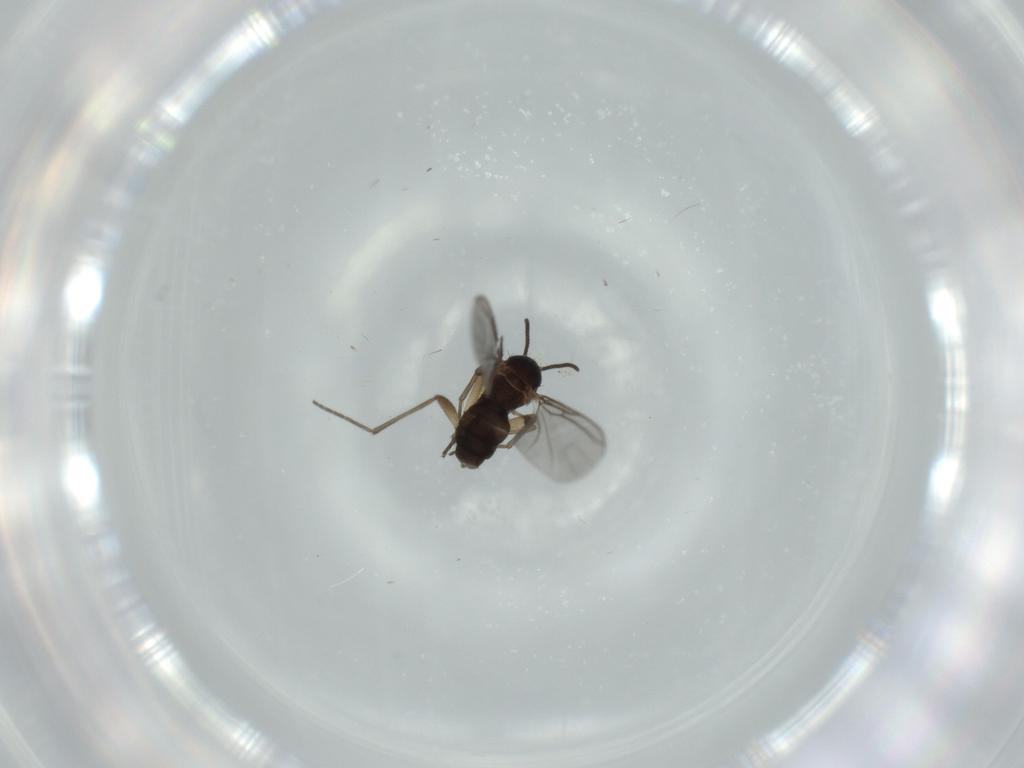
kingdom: Animalia
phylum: Arthropoda
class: Insecta
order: Diptera
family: Sciaridae
